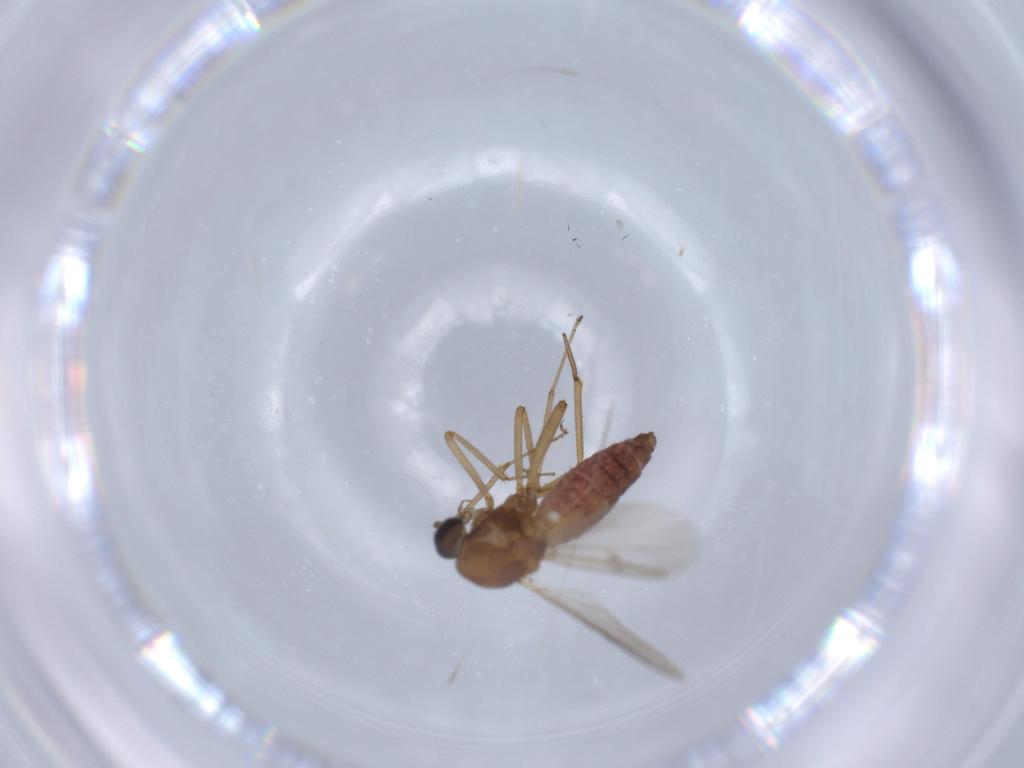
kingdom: Animalia
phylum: Arthropoda
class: Insecta
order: Diptera
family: Ceratopogonidae
